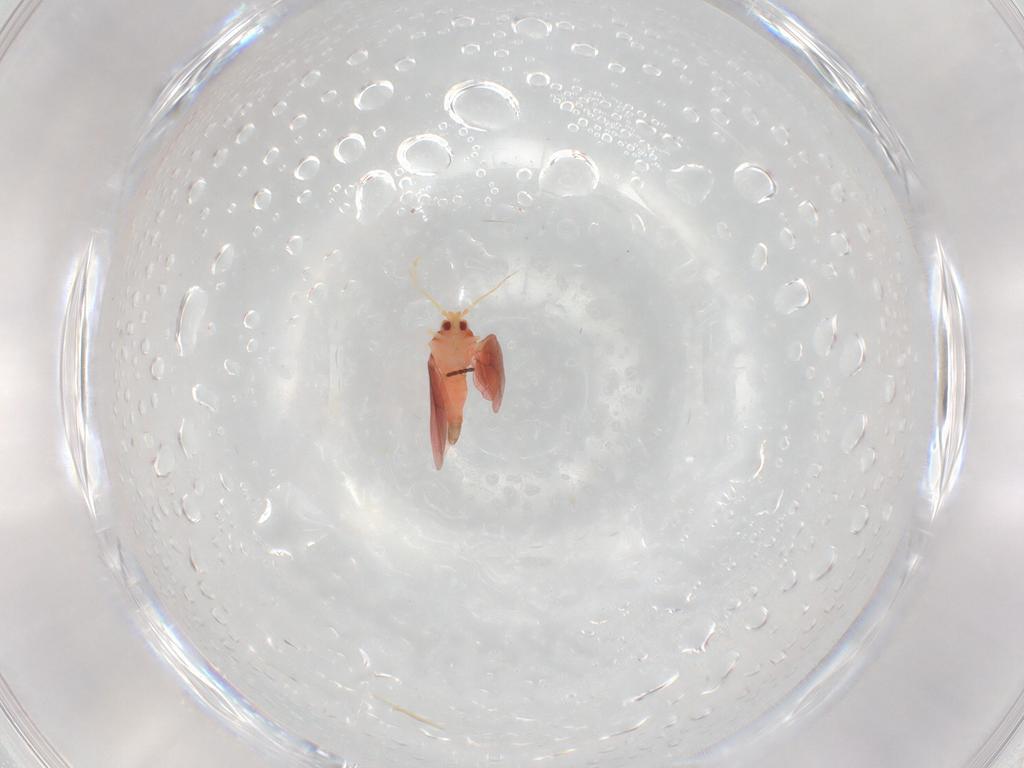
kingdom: Animalia
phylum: Arthropoda
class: Insecta
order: Hemiptera
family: Aleyrodidae
